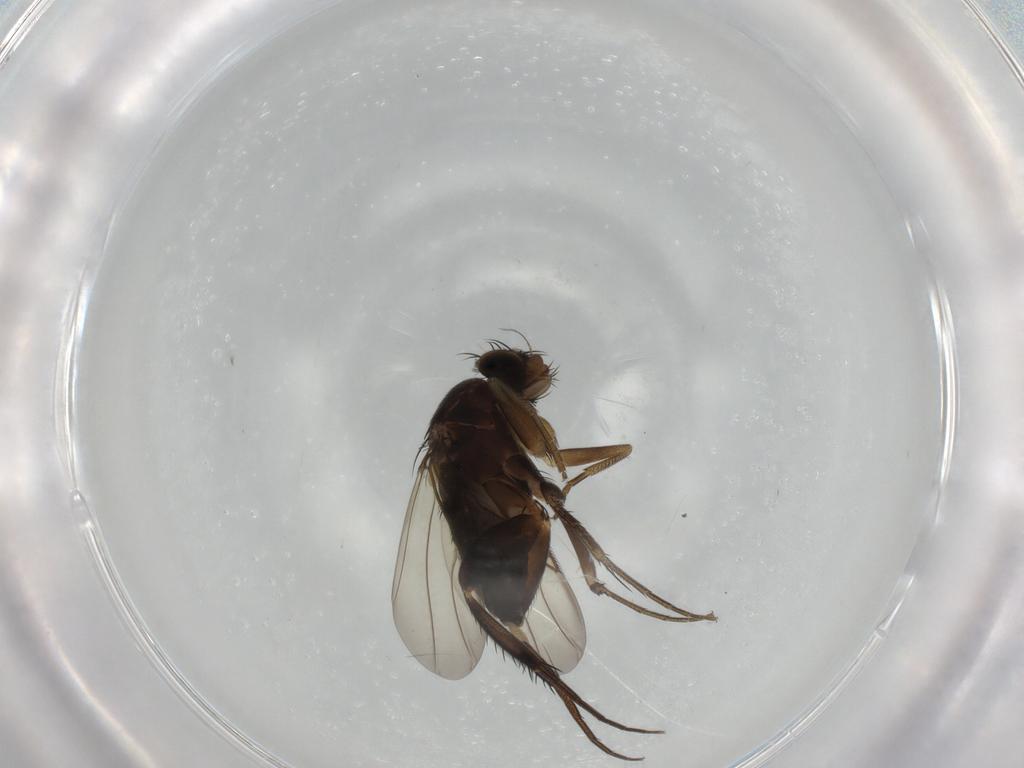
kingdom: Animalia
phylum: Arthropoda
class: Insecta
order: Diptera
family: Phoridae
